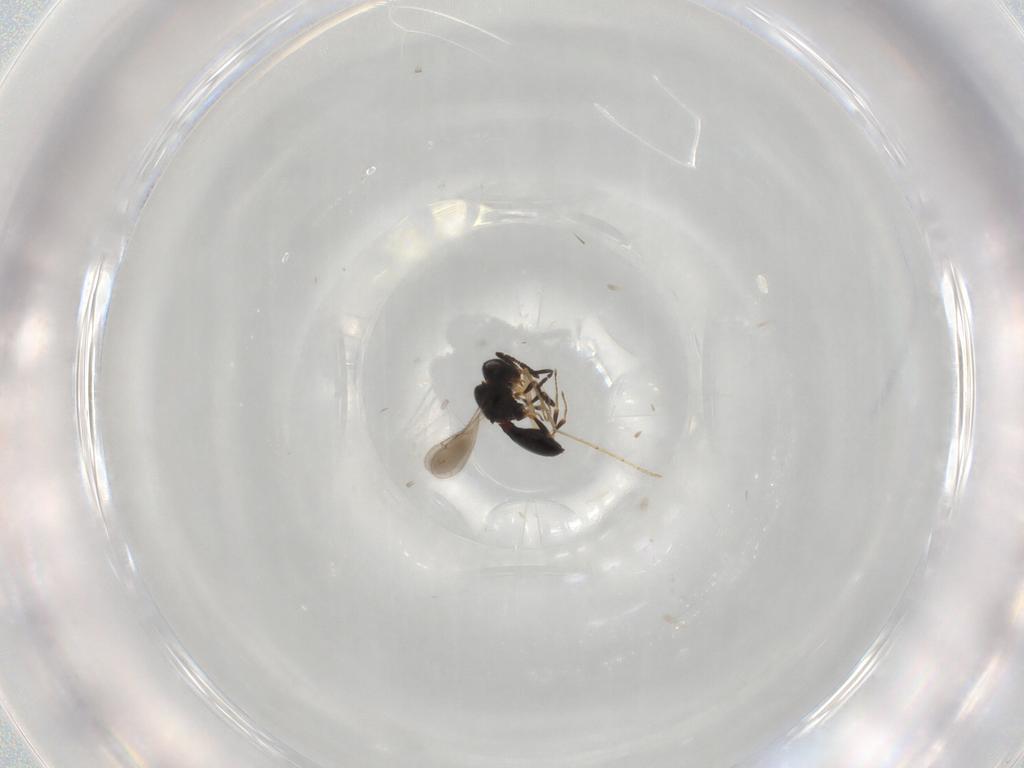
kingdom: Animalia
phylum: Arthropoda
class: Insecta
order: Hymenoptera
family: Scelionidae
